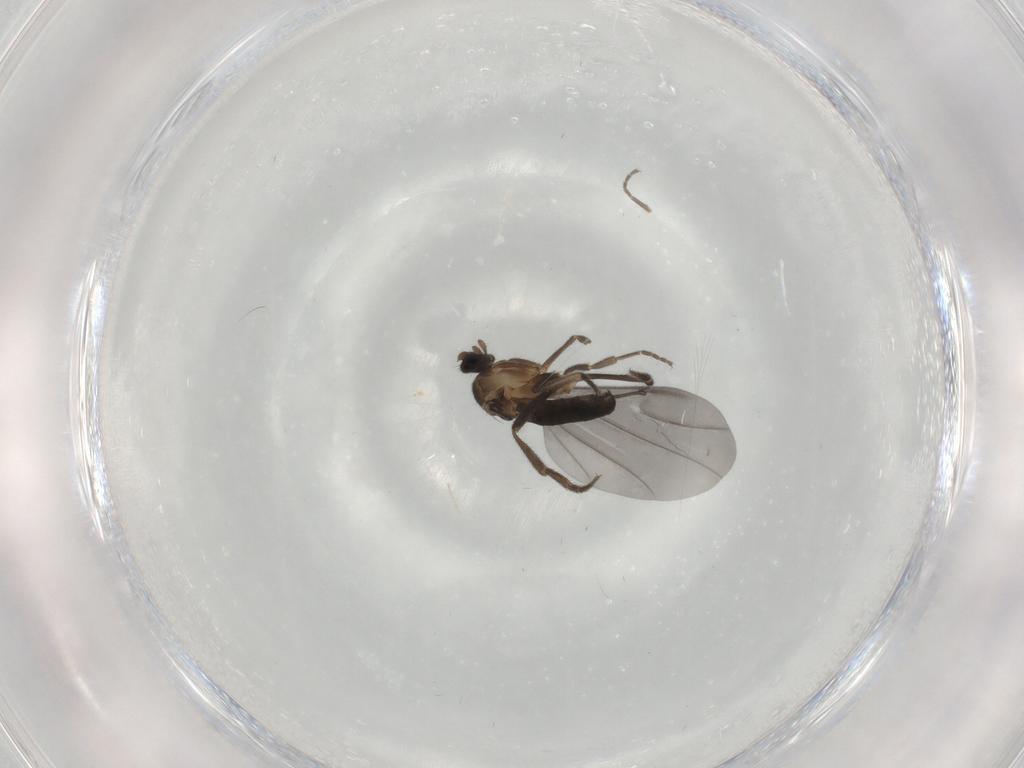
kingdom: Animalia
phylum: Arthropoda
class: Insecta
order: Diptera
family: Phoridae
